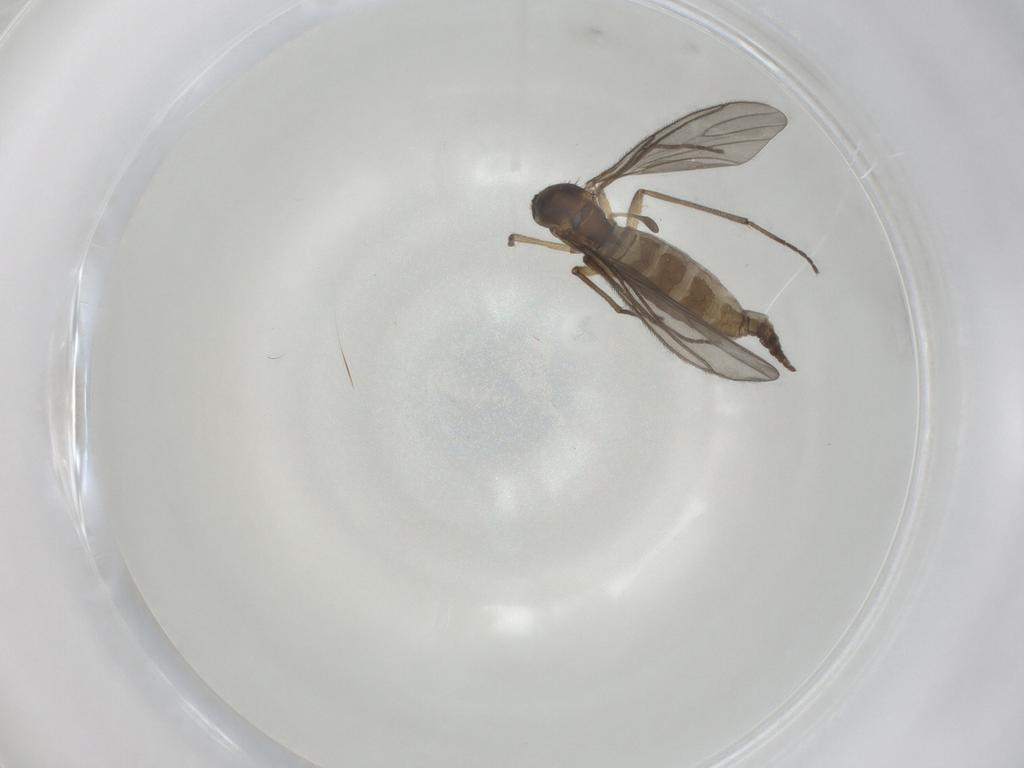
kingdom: Animalia
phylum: Arthropoda
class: Insecta
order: Diptera
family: Sciaridae
